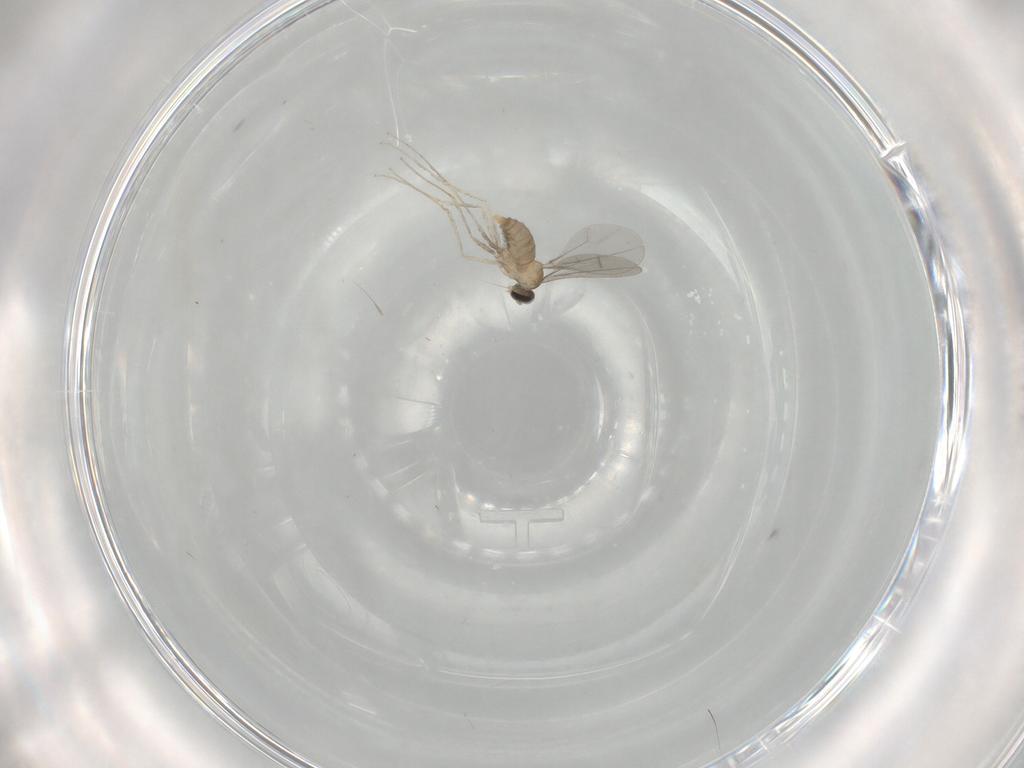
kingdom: Animalia
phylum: Arthropoda
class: Insecta
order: Diptera
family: Cecidomyiidae
